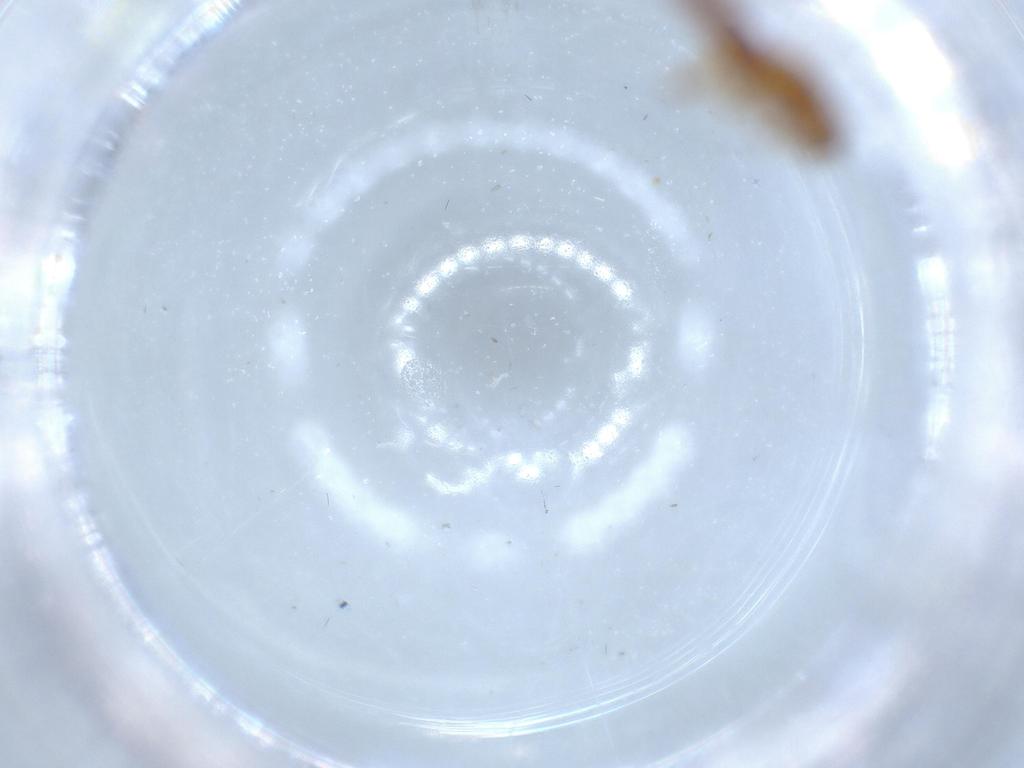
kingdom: Animalia
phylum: Arthropoda
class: Insecta
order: Coleoptera
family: Staphylinidae
